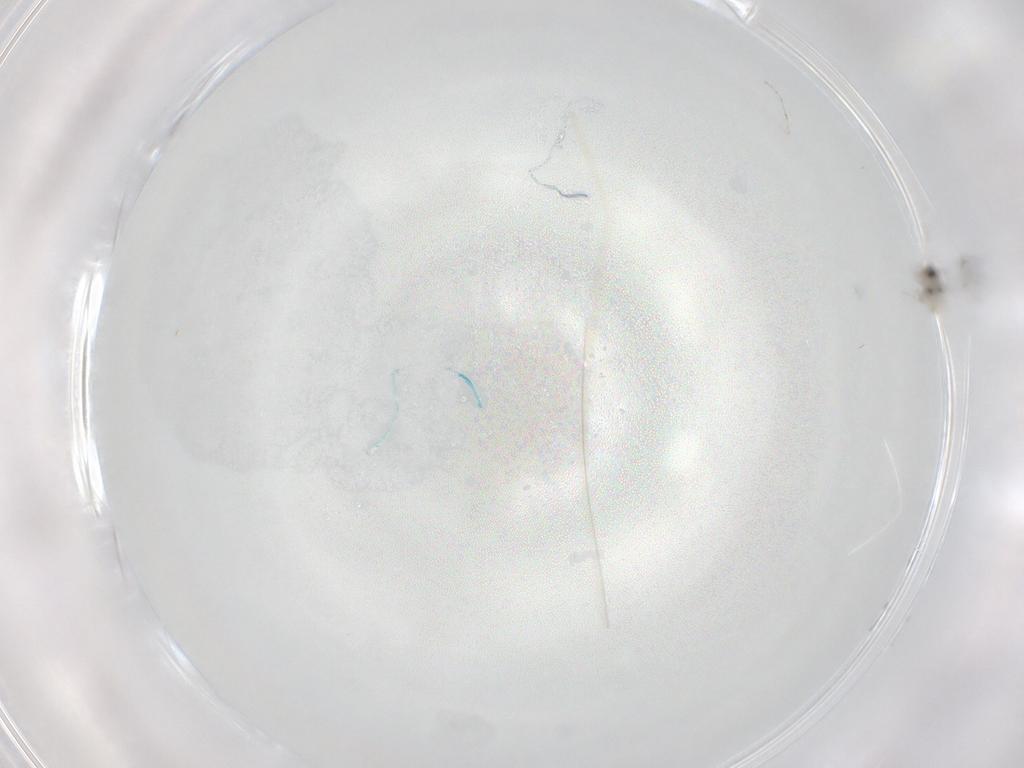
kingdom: Animalia
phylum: Arthropoda
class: Insecta
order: Diptera
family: Cecidomyiidae
